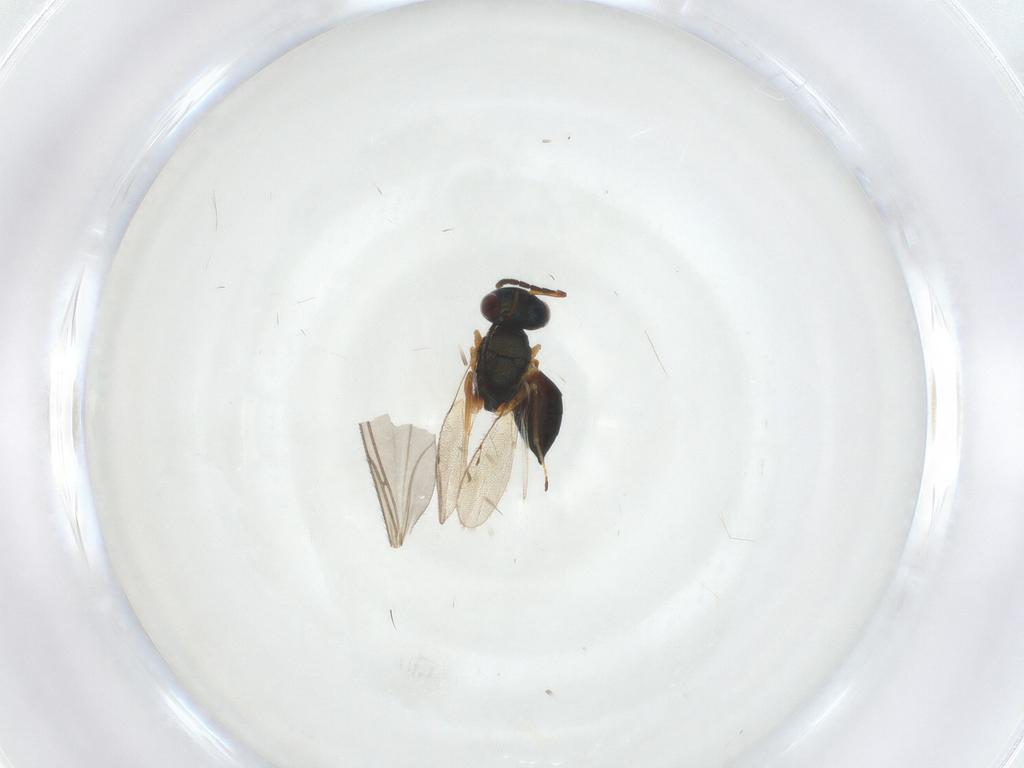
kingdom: Animalia
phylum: Arthropoda
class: Insecta
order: Hymenoptera
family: Pteromalidae
